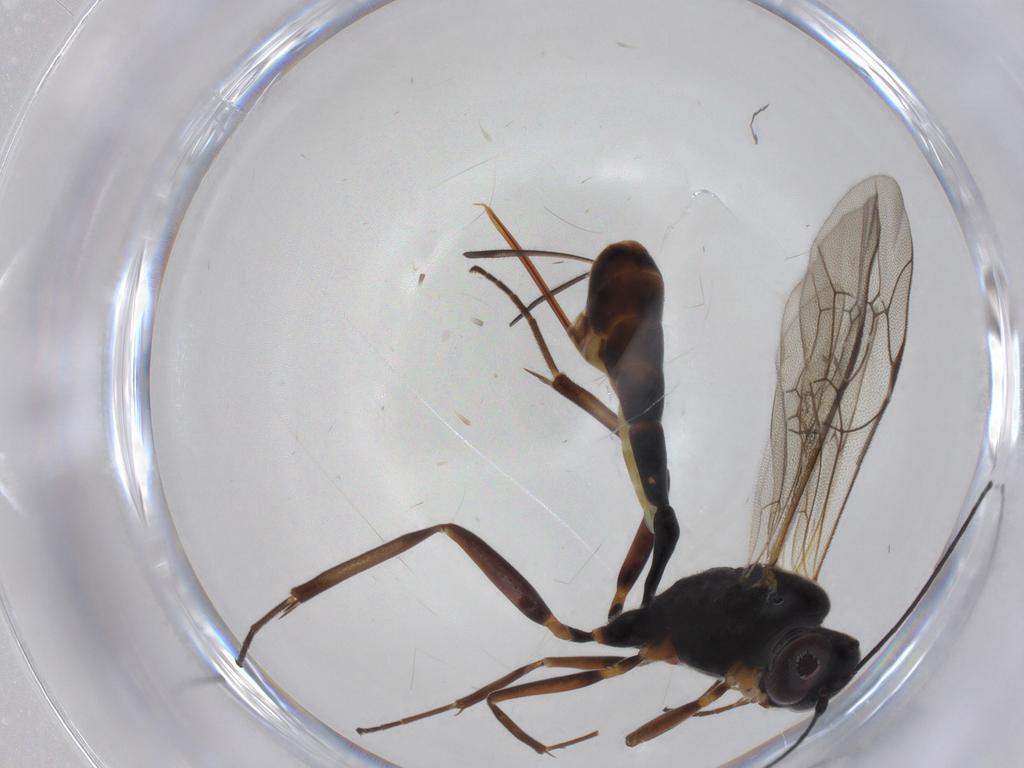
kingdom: Animalia
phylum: Arthropoda
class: Insecta
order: Hymenoptera
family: Ichneumonidae
